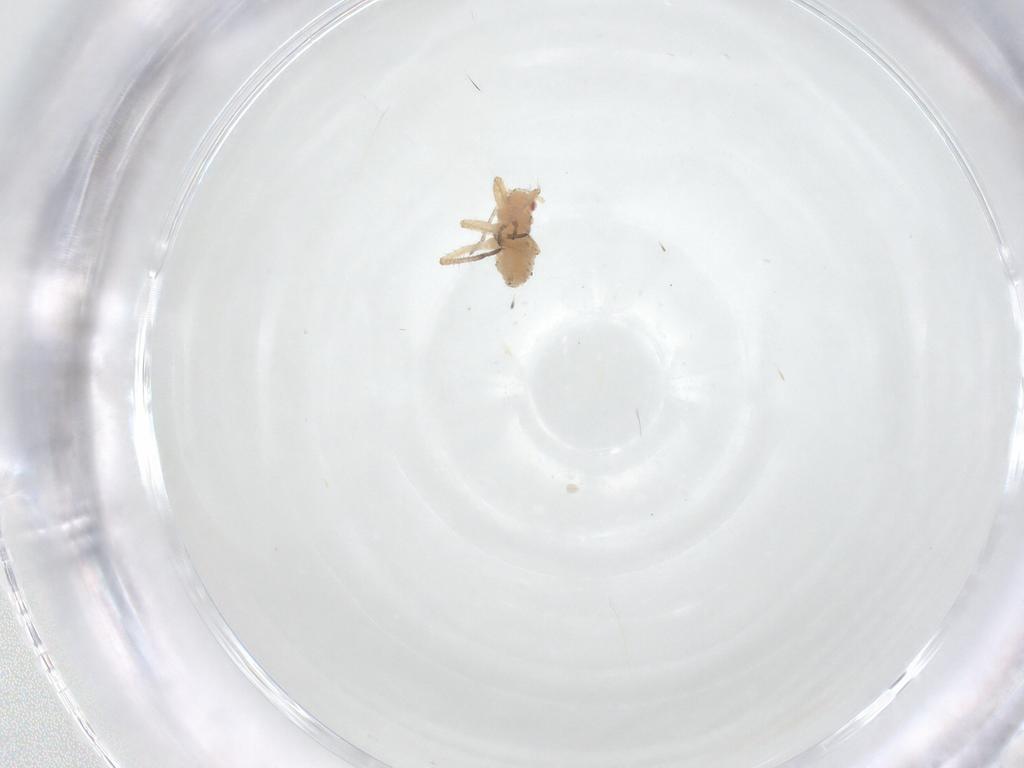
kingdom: Animalia
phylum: Arthropoda
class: Insecta
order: Hemiptera
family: Aphididae
